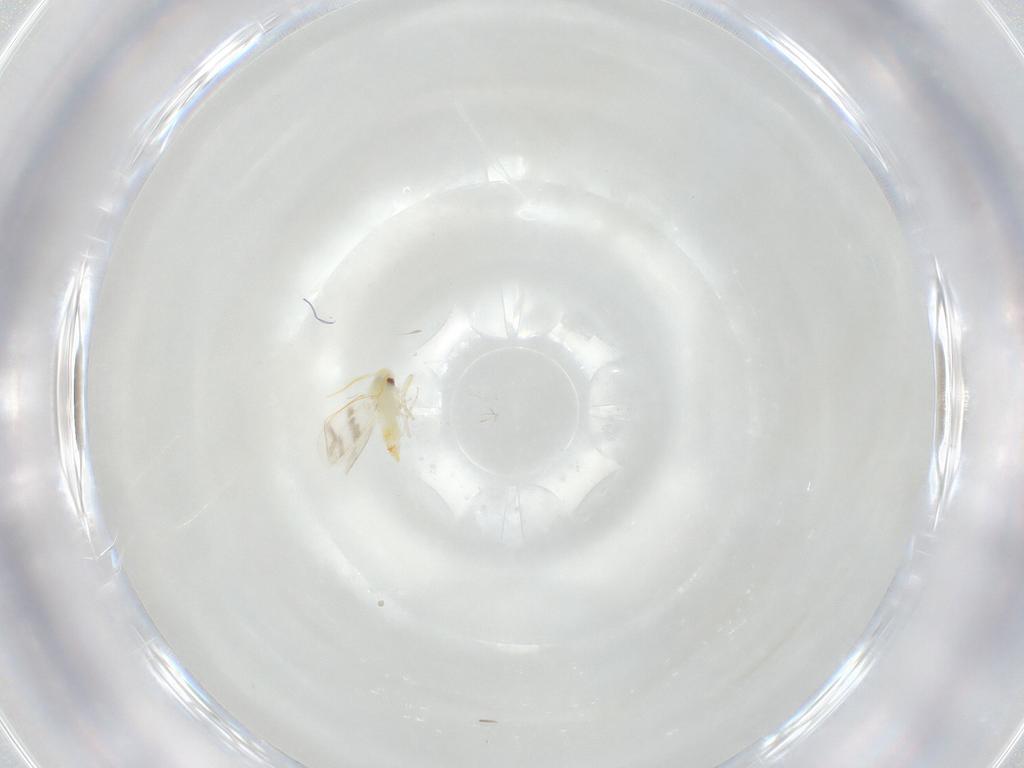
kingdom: Animalia
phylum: Arthropoda
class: Insecta
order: Hemiptera
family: Aleyrodidae
